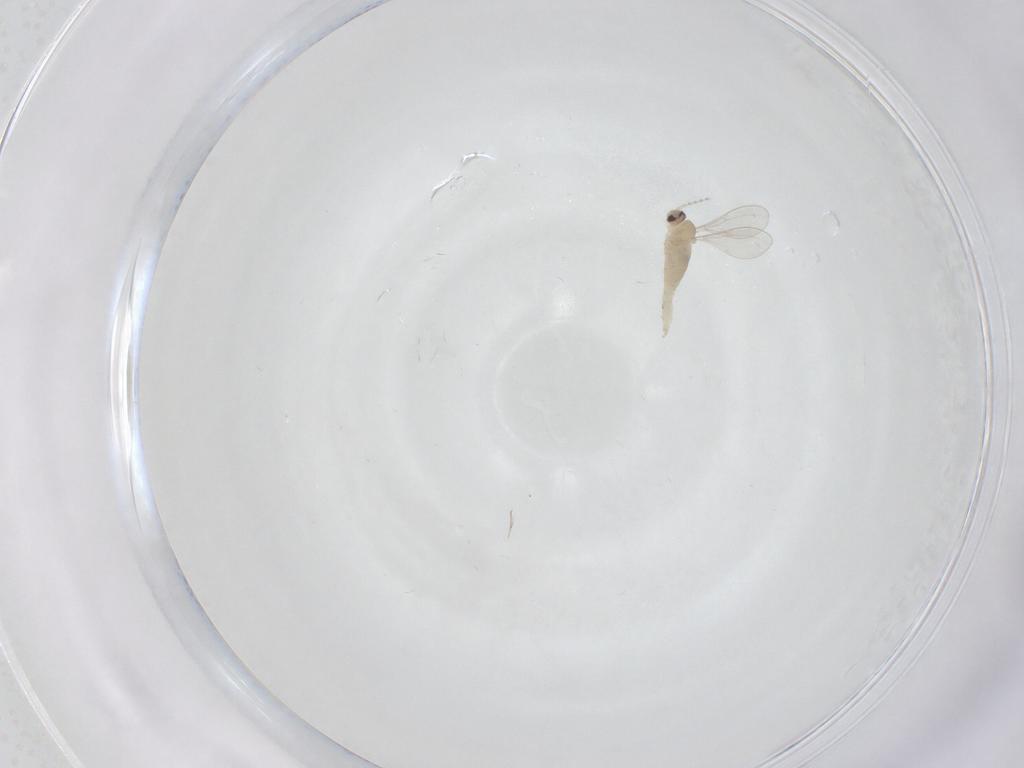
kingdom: Animalia
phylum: Arthropoda
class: Insecta
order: Diptera
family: Cecidomyiidae
